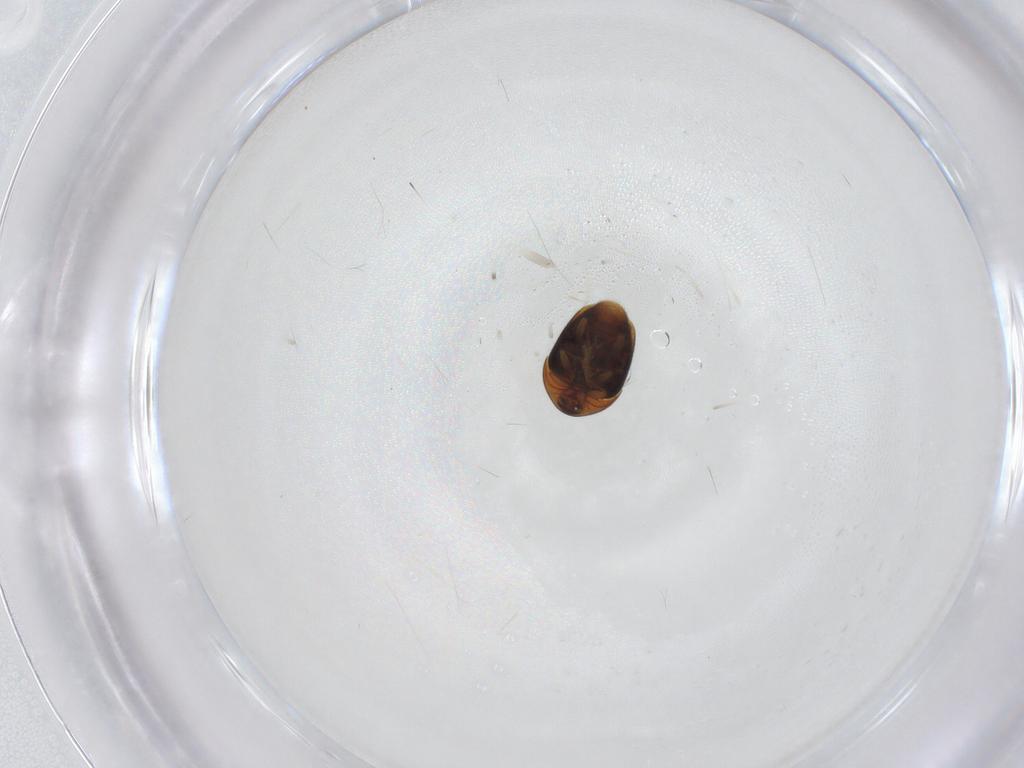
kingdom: Animalia
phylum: Arthropoda
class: Insecta
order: Coleoptera
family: Corylophidae
